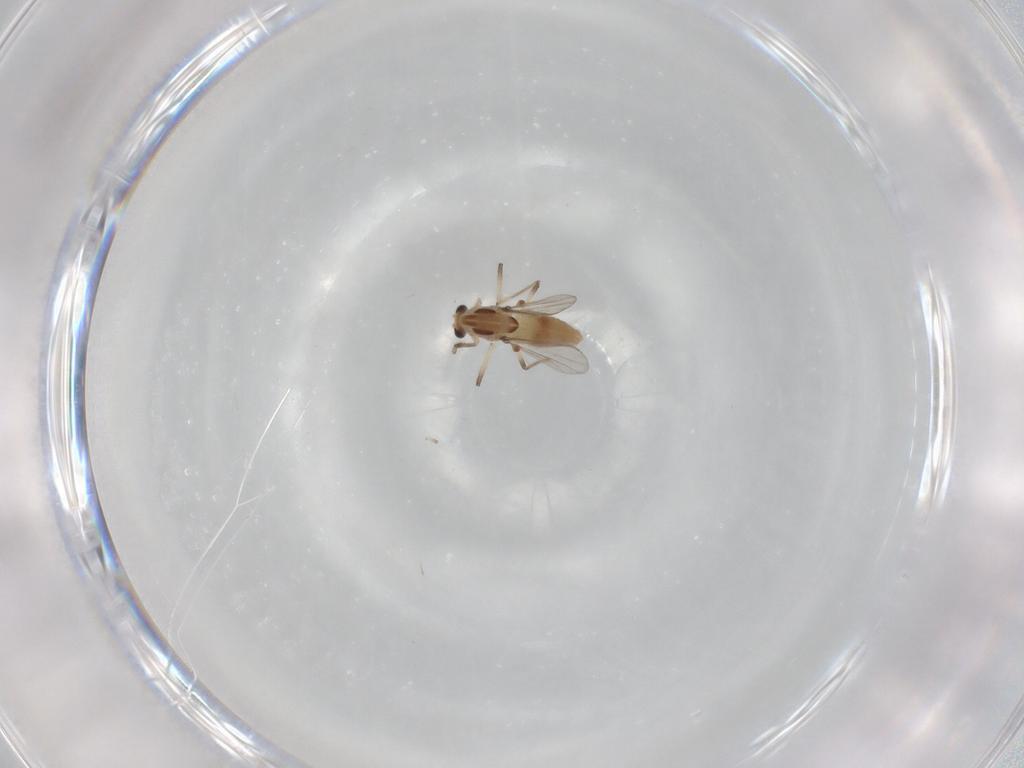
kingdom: Animalia
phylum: Arthropoda
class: Insecta
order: Diptera
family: Chironomidae
